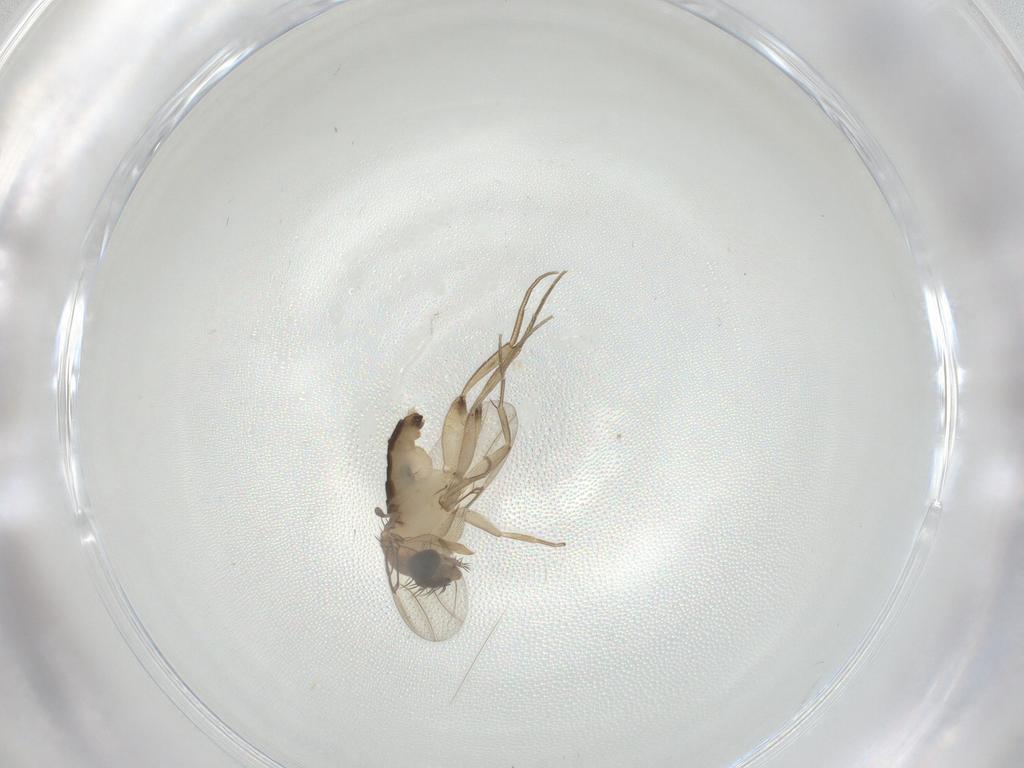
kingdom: Animalia
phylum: Arthropoda
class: Insecta
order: Diptera
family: Phoridae
